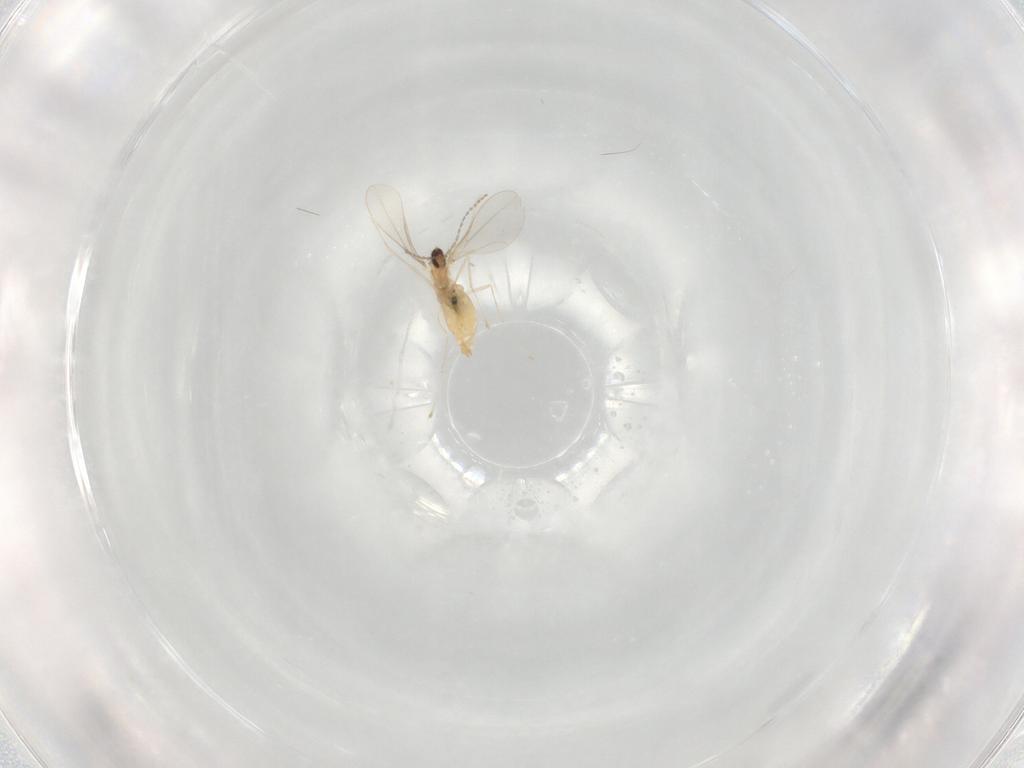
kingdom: Animalia
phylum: Arthropoda
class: Insecta
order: Diptera
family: Cecidomyiidae
